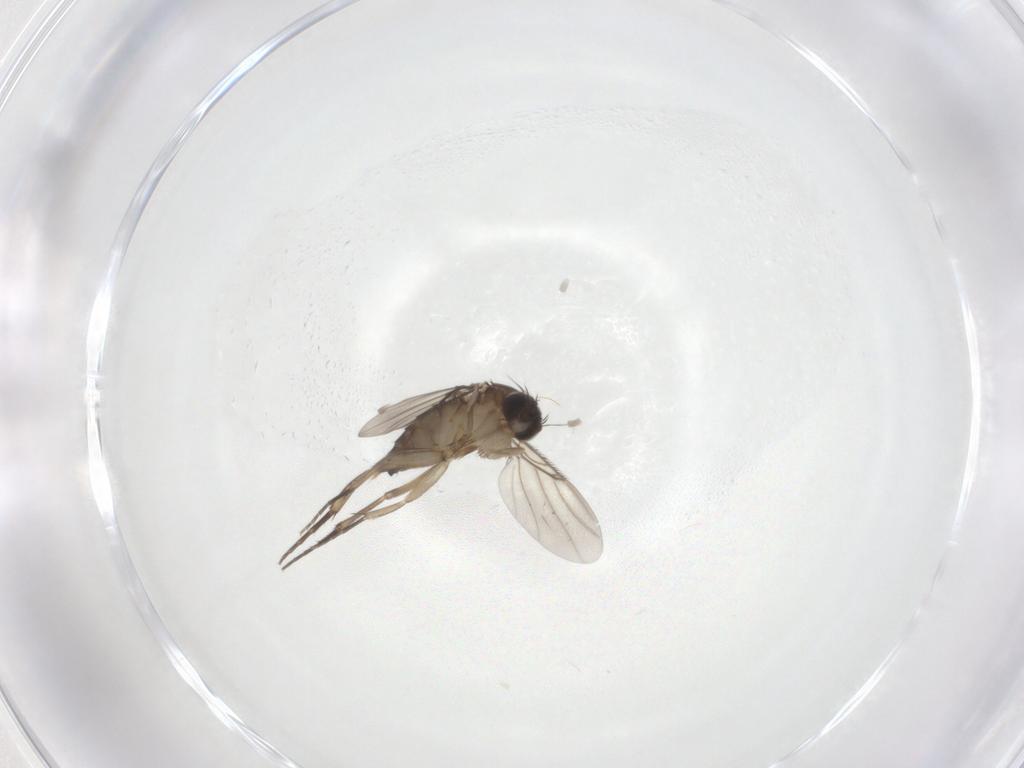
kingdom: Animalia
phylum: Arthropoda
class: Insecta
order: Diptera
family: Phoridae
